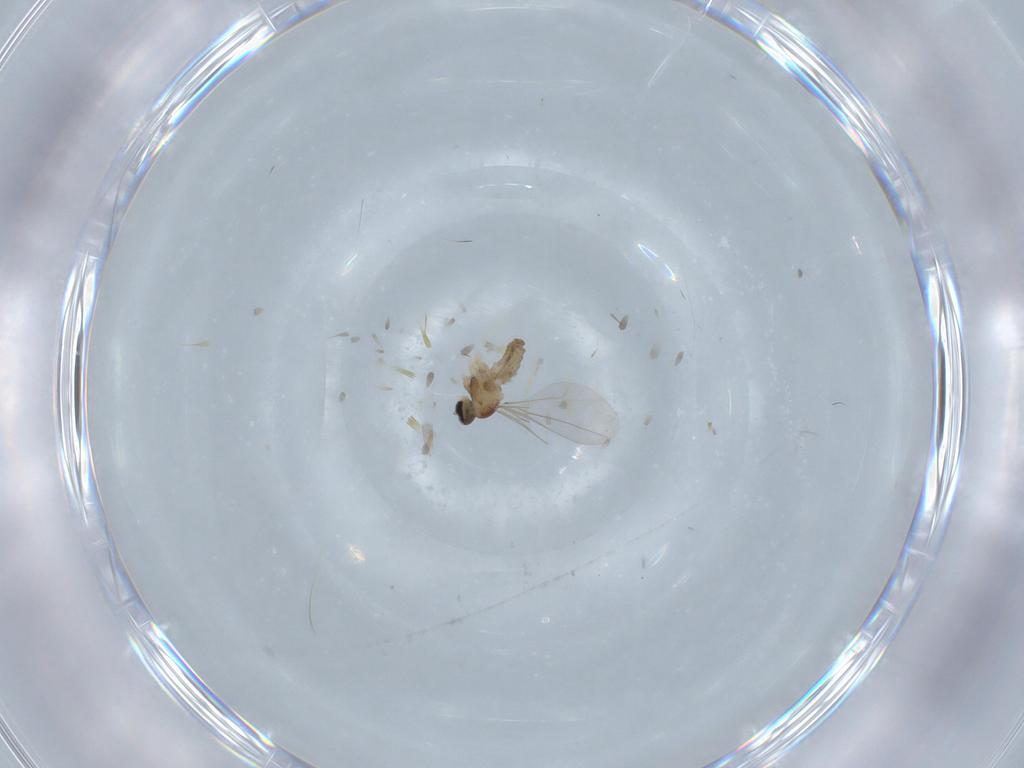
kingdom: Animalia
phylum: Arthropoda
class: Insecta
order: Diptera
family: Cecidomyiidae
